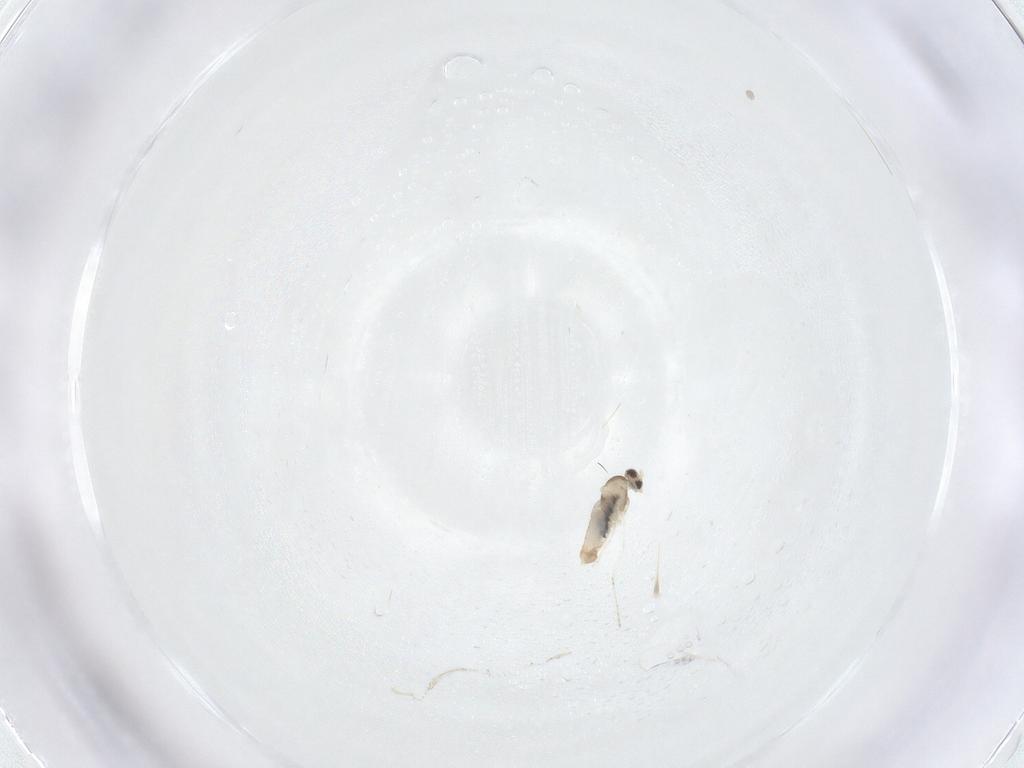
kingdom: Animalia
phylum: Arthropoda
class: Insecta
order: Diptera
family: Cecidomyiidae
